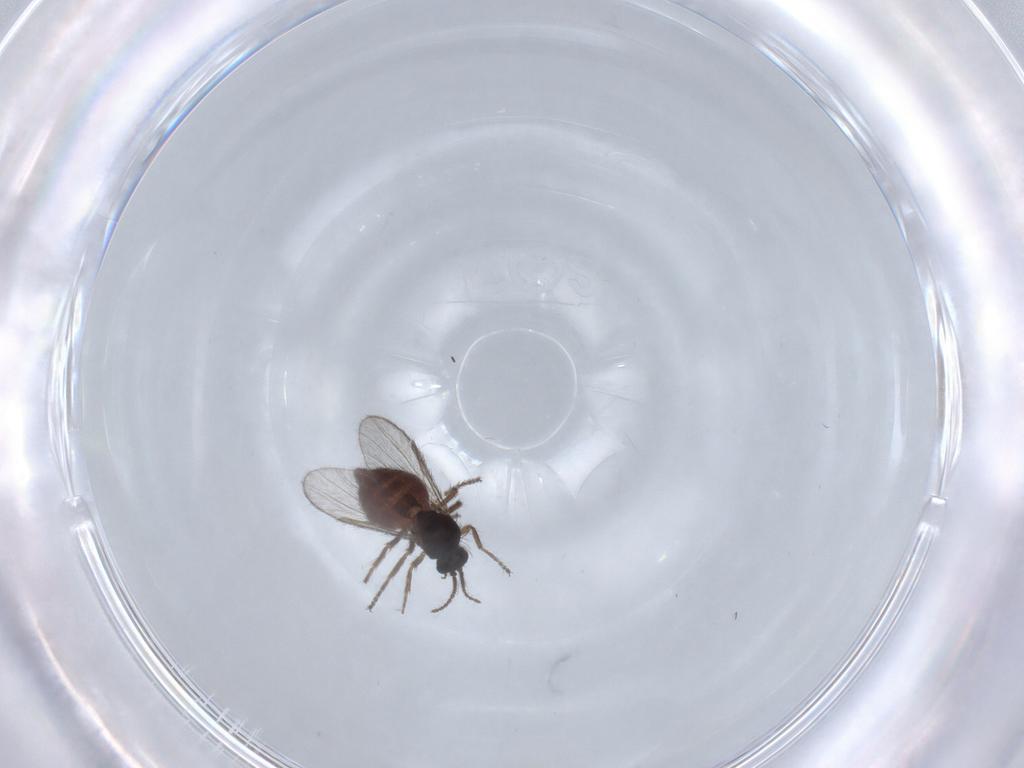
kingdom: Animalia
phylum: Arthropoda
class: Insecta
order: Diptera
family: Ceratopogonidae
